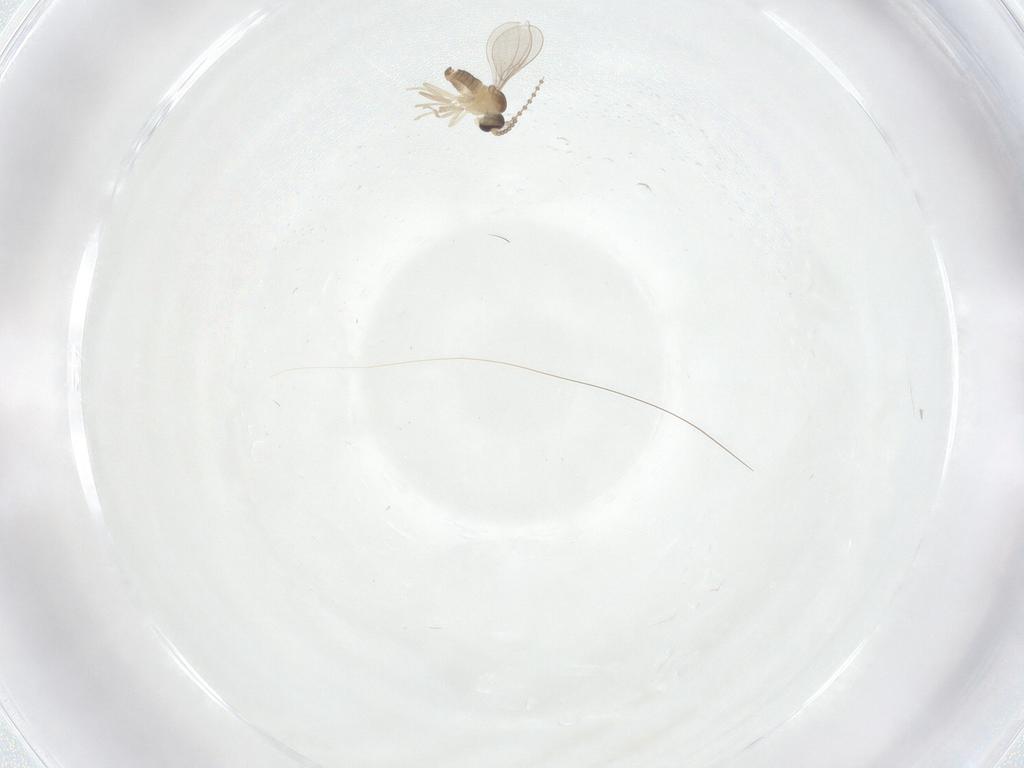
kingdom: Animalia
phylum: Arthropoda
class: Insecta
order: Diptera
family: Cecidomyiidae
